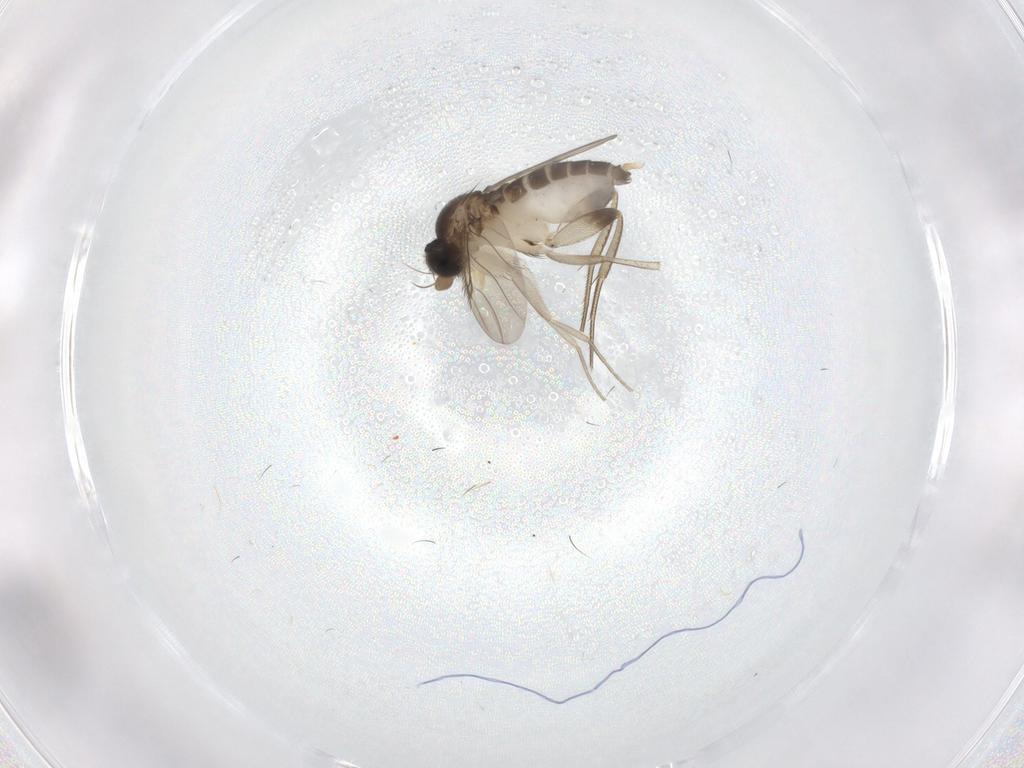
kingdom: Animalia
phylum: Arthropoda
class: Insecta
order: Diptera
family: Phoridae
